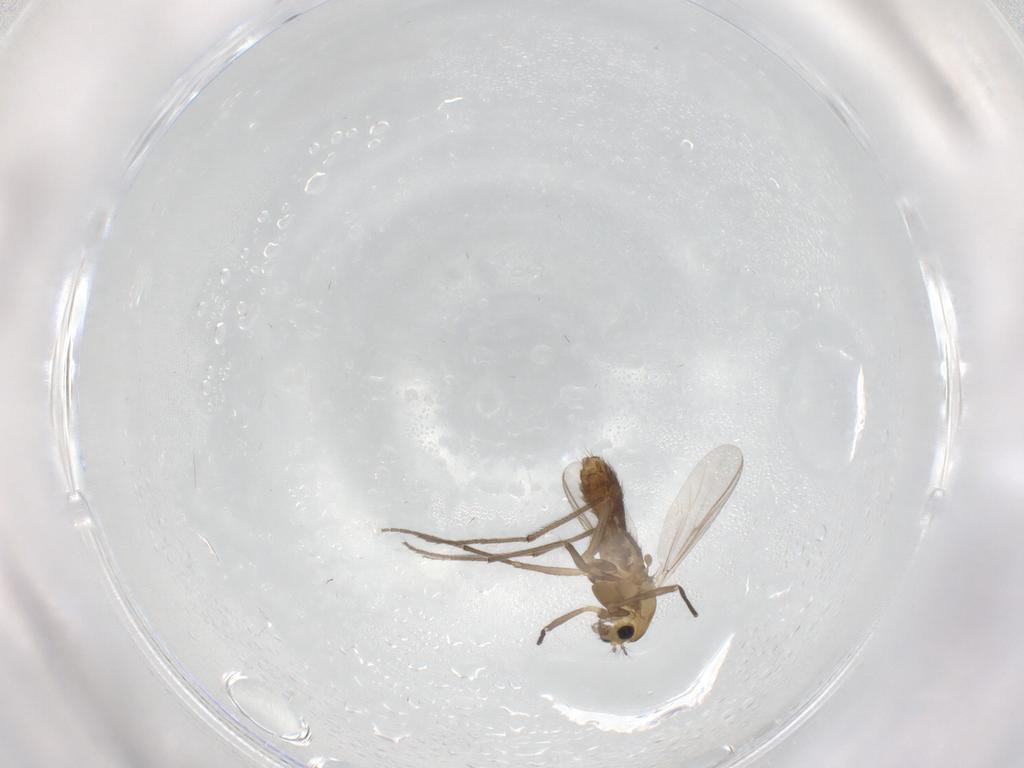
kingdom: Animalia
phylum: Arthropoda
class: Insecta
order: Diptera
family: Chironomidae
